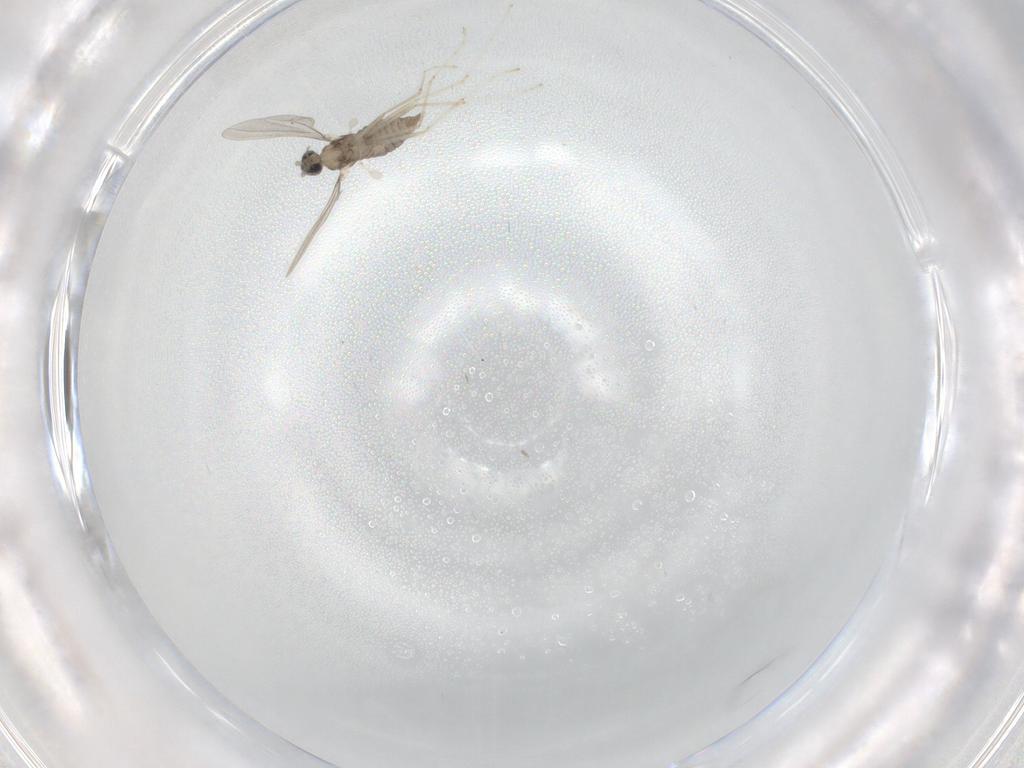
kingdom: Animalia
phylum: Arthropoda
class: Insecta
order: Diptera
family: Cecidomyiidae
